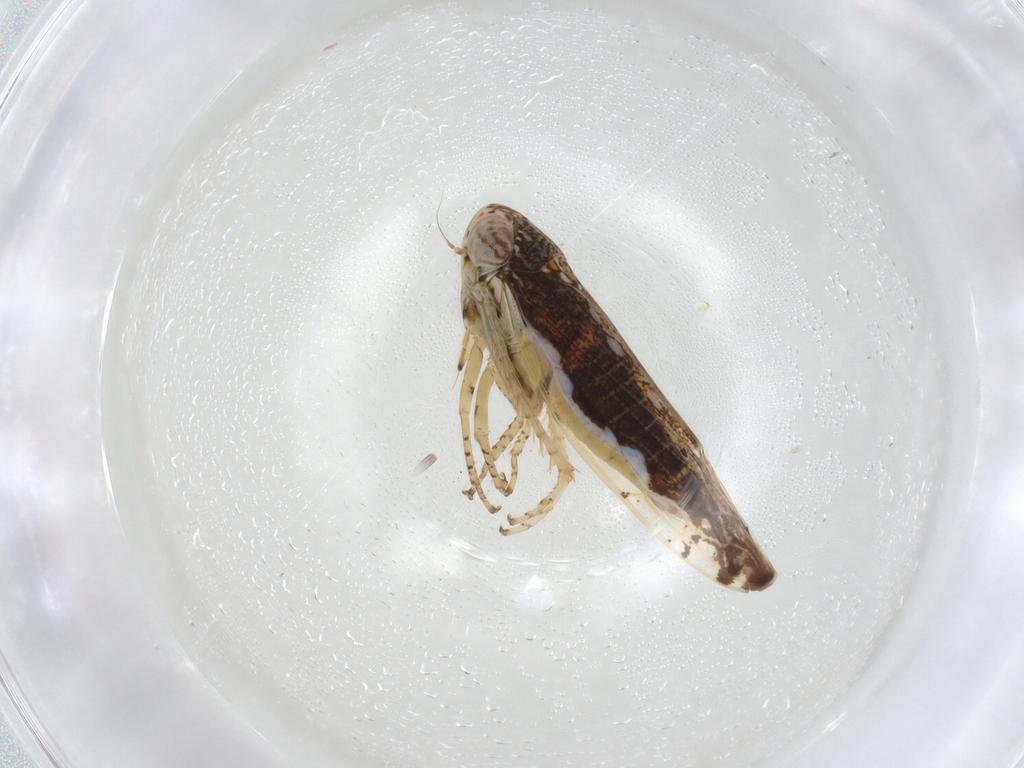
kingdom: Animalia
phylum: Arthropoda
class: Insecta
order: Hemiptera
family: Cicadellidae
